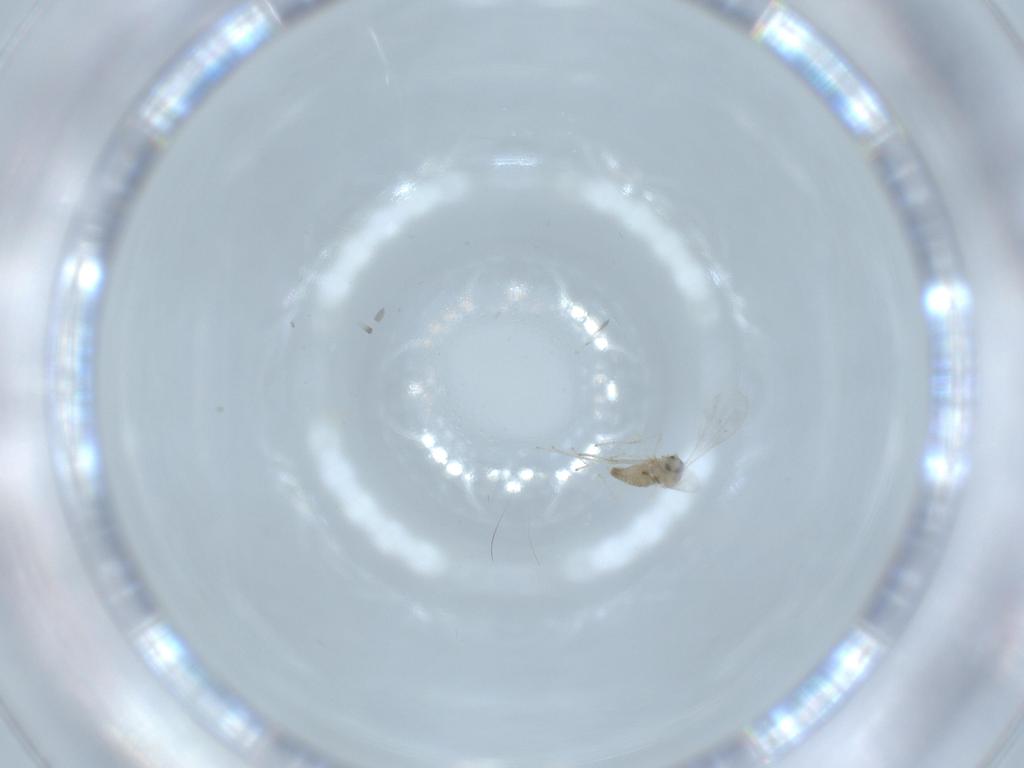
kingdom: Animalia
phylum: Arthropoda
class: Insecta
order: Diptera
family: Cecidomyiidae
